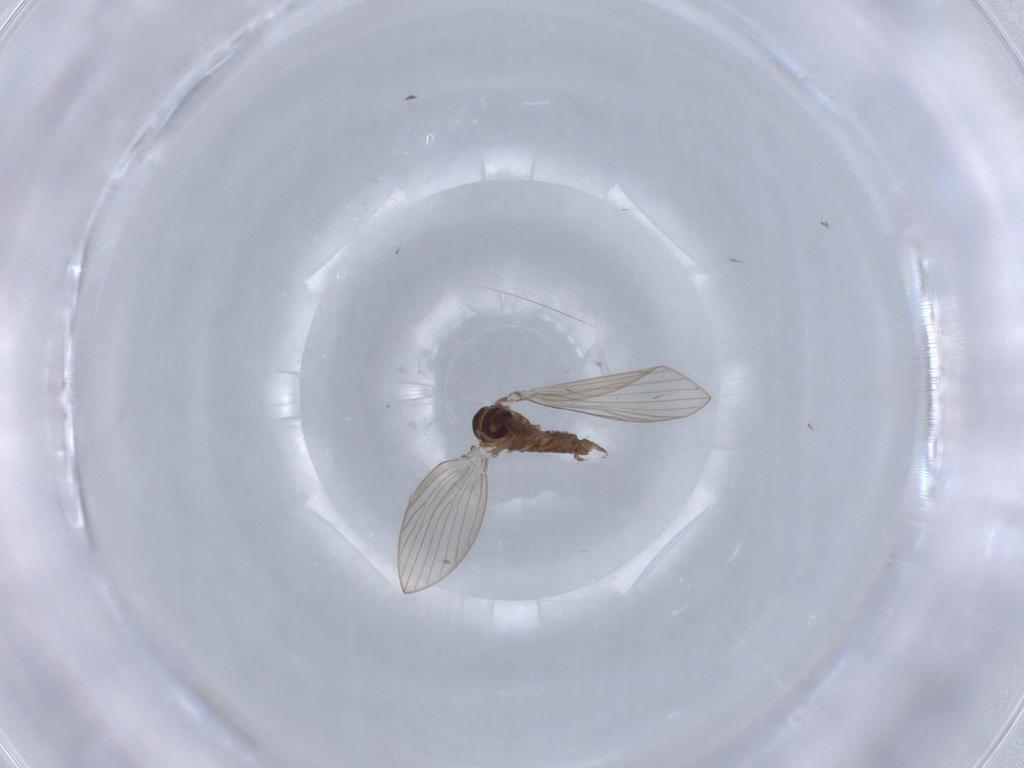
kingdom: Animalia
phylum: Arthropoda
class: Insecta
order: Diptera
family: Psychodidae
